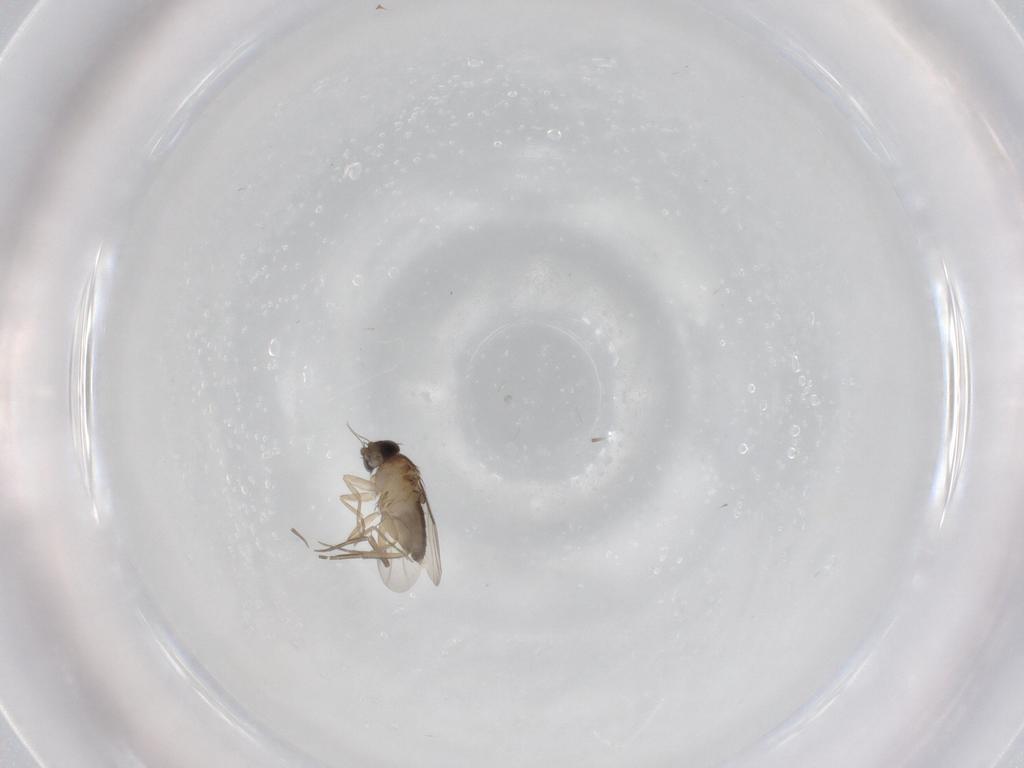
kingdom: Animalia
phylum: Arthropoda
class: Insecta
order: Diptera
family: Phoridae
